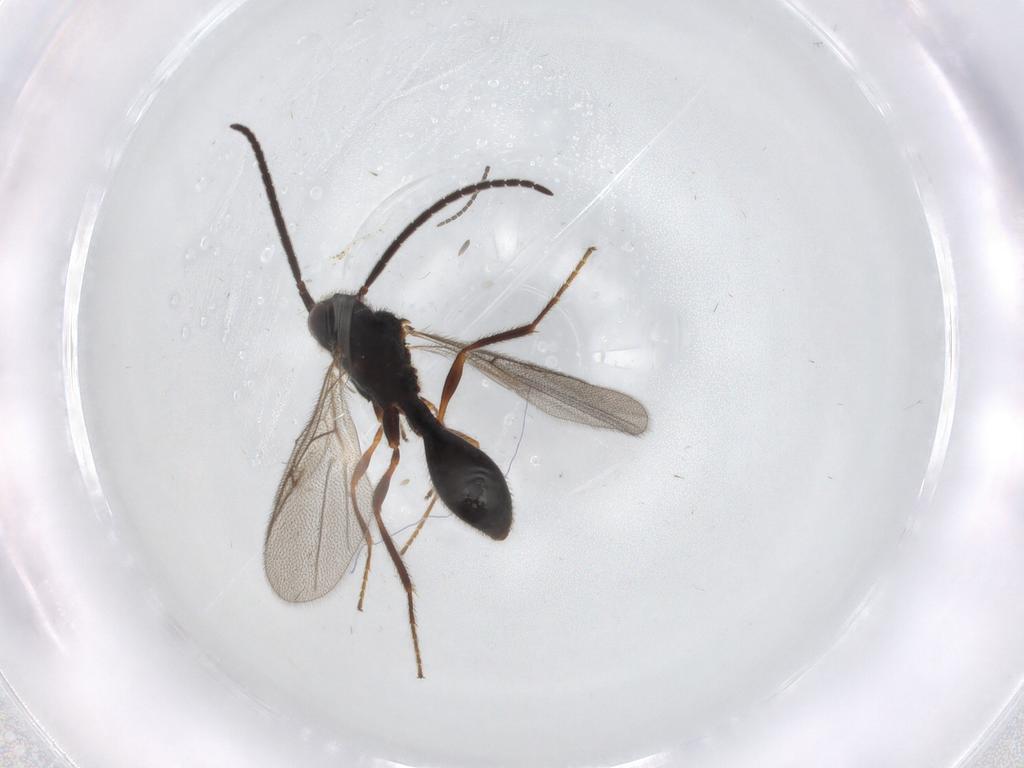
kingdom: Animalia
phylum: Arthropoda
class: Insecta
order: Hymenoptera
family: Diapriidae
